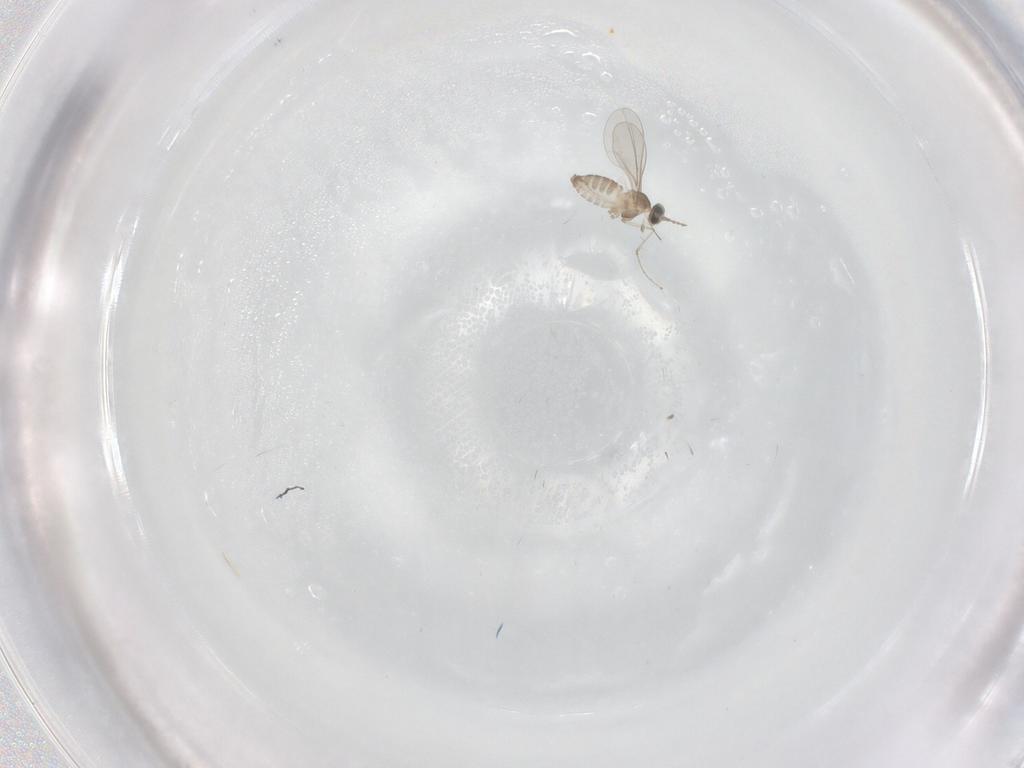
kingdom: Animalia
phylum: Arthropoda
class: Insecta
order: Diptera
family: Cecidomyiidae
